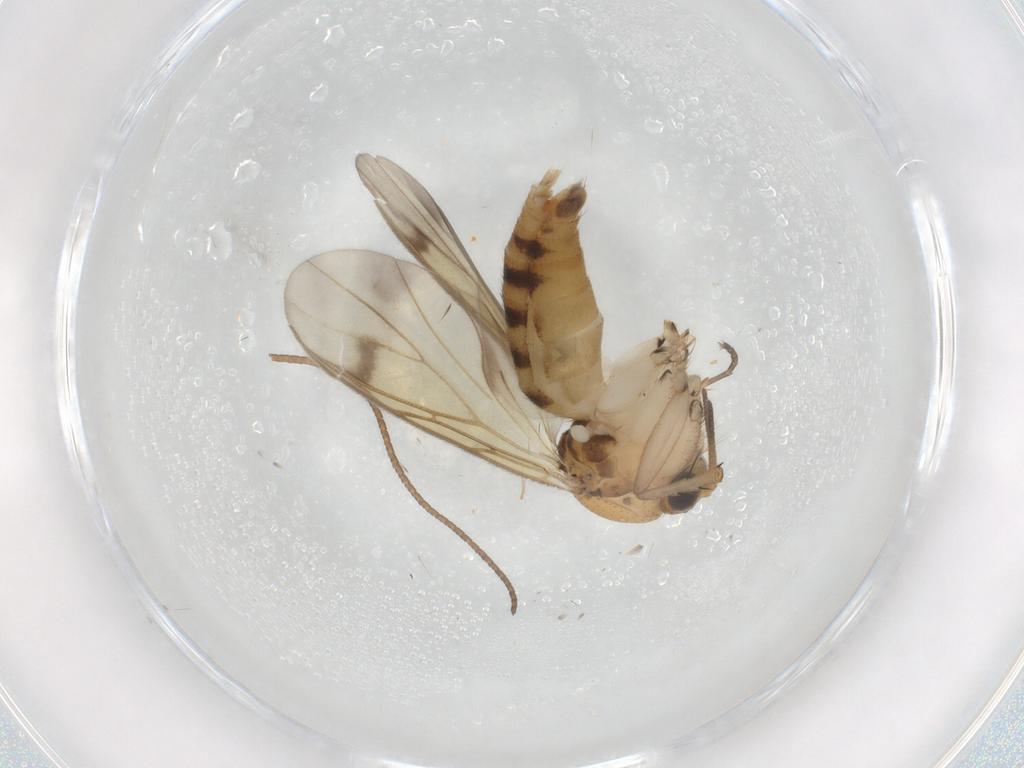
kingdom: Animalia
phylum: Arthropoda
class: Insecta
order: Diptera
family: Mycetophilidae
